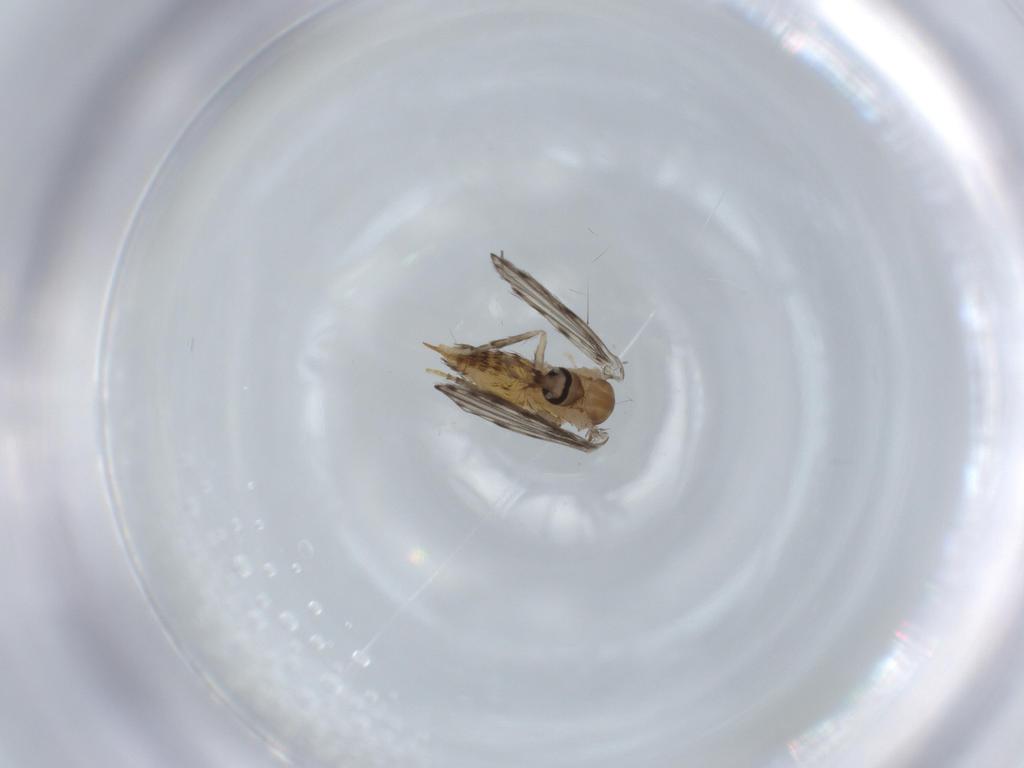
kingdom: Animalia
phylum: Arthropoda
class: Insecta
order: Diptera
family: Psychodidae
